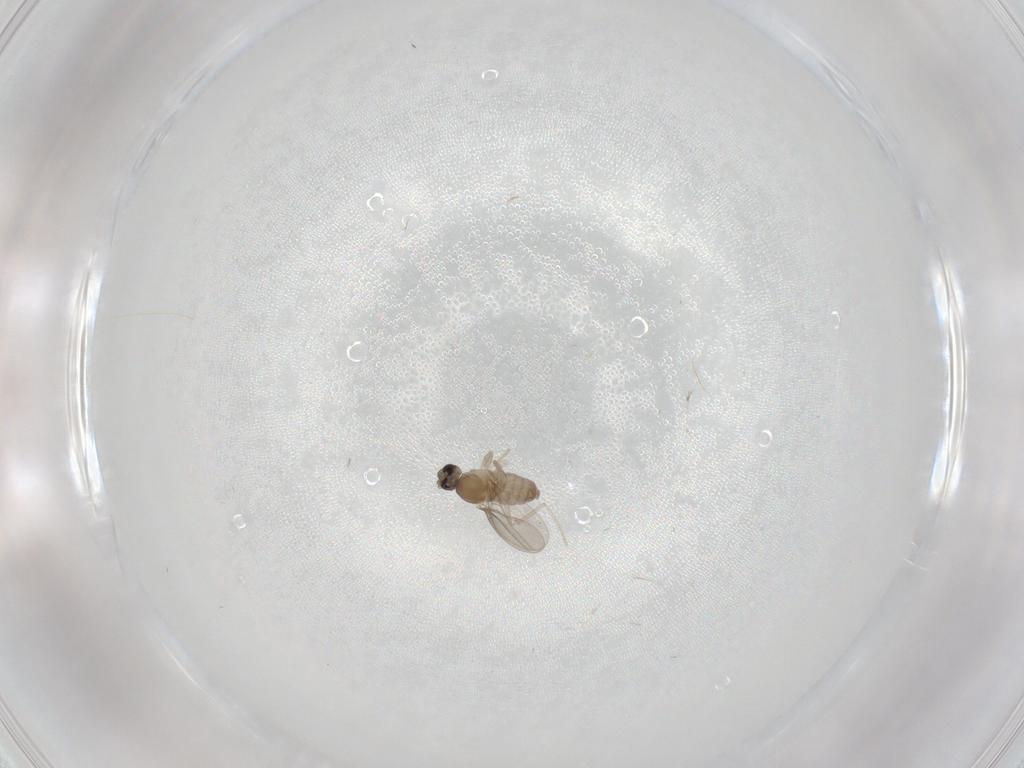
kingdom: Animalia
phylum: Arthropoda
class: Insecta
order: Diptera
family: Cecidomyiidae
